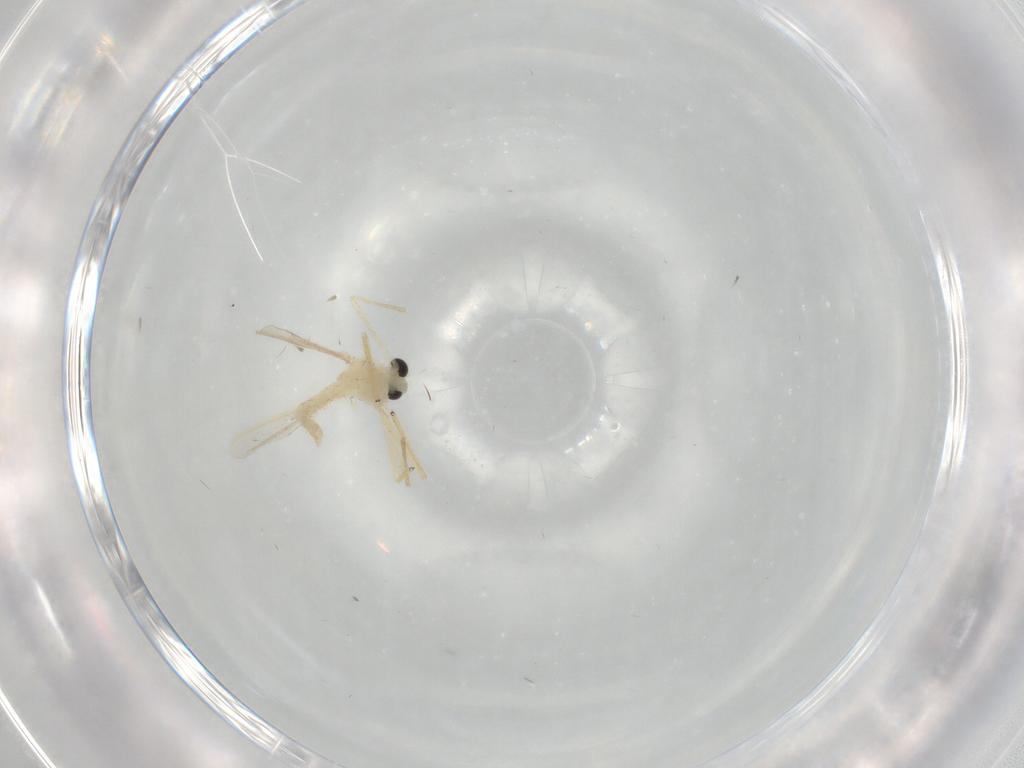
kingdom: Animalia
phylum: Arthropoda
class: Insecta
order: Diptera
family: Chironomidae
